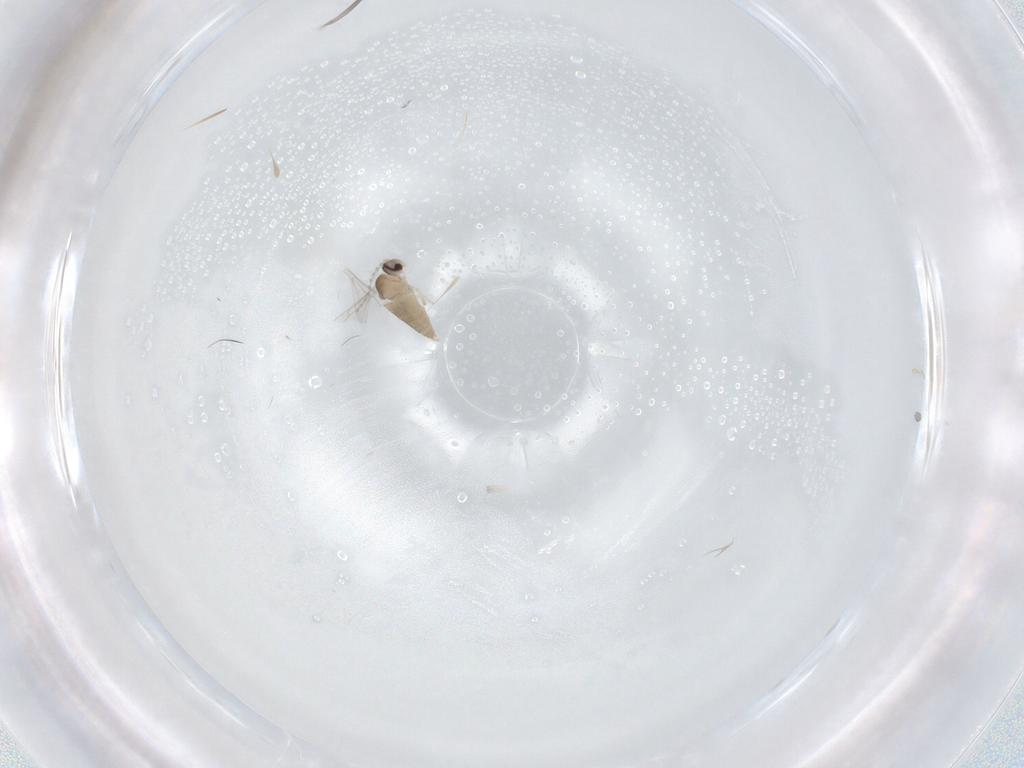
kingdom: Animalia
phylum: Arthropoda
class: Insecta
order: Diptera
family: Cecidomyiidae
